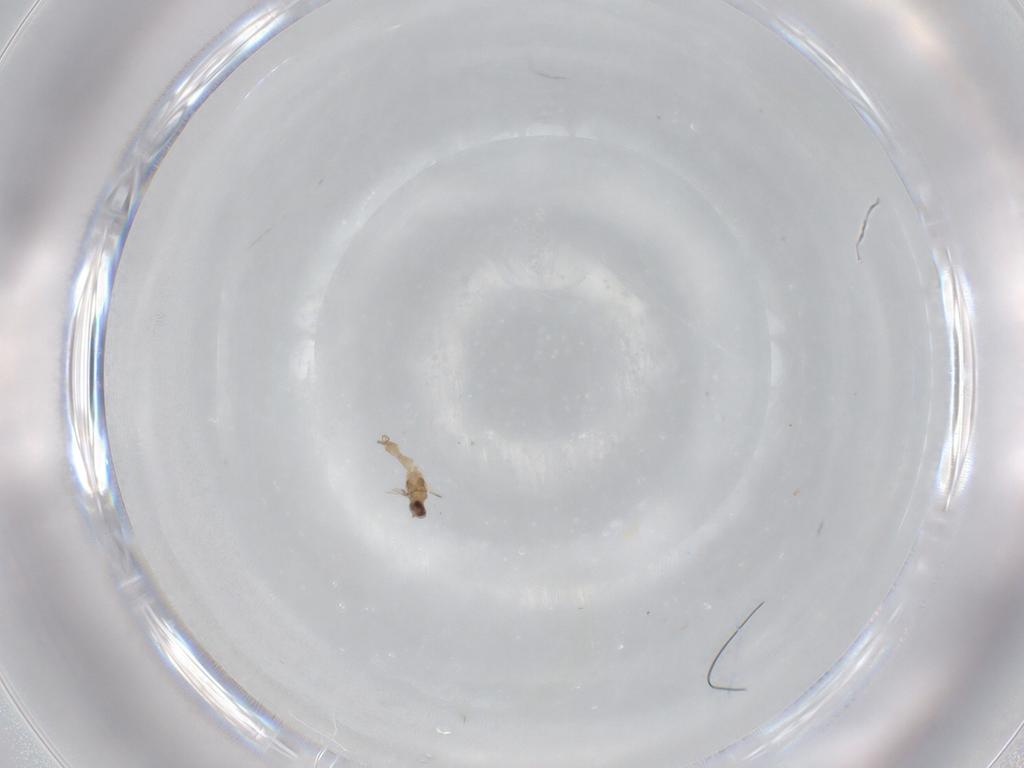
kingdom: Animalia
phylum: Arthropoda
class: Insecta
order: Diptera
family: Cecidomyiidae
